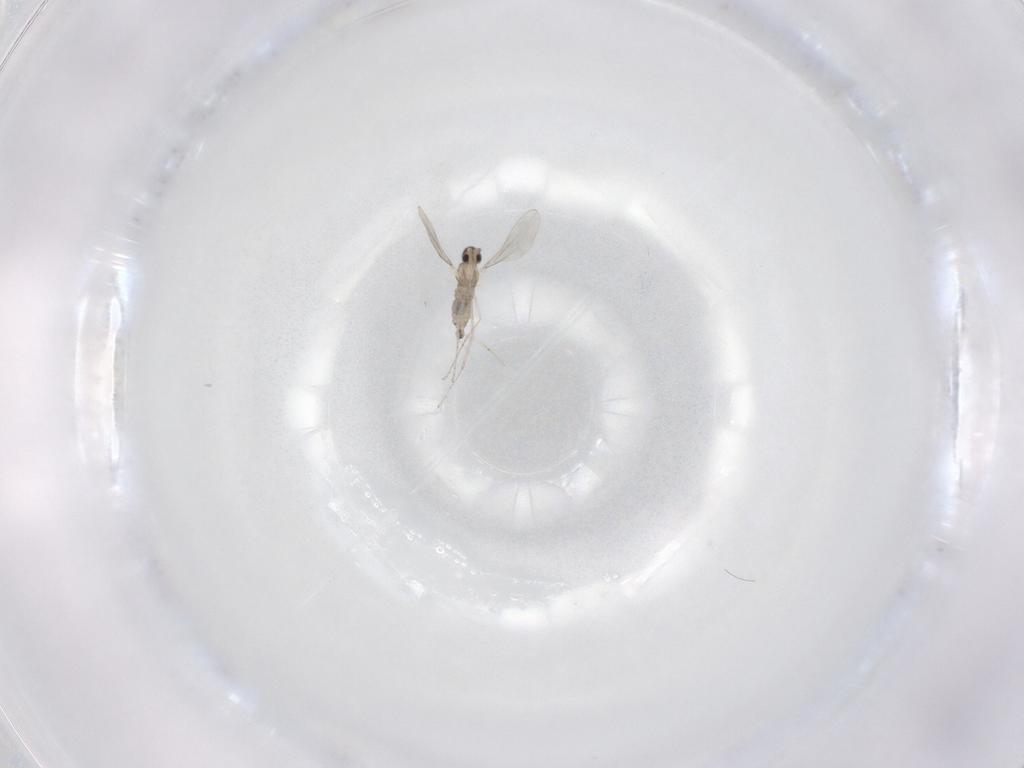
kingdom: Animalia
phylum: Arthropoda
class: Insecta
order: Diptera
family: Cecidomyiidae
